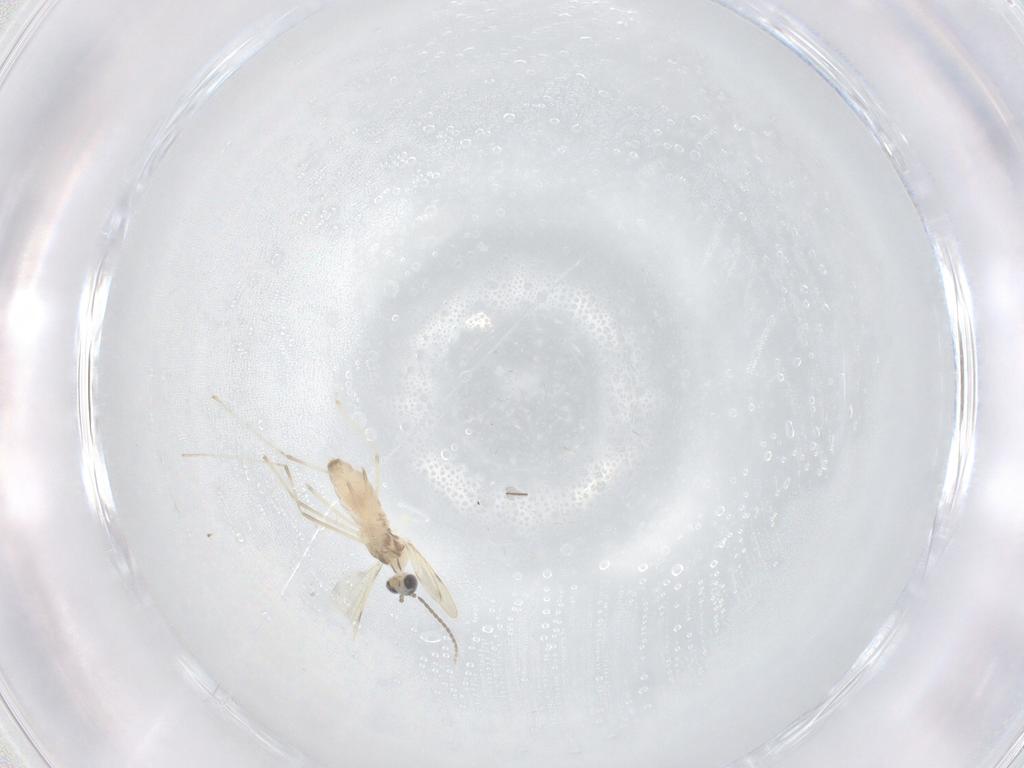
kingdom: Animalia
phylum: Arthropoda
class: Insecta
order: Diptera
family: Cecidomyiidae
